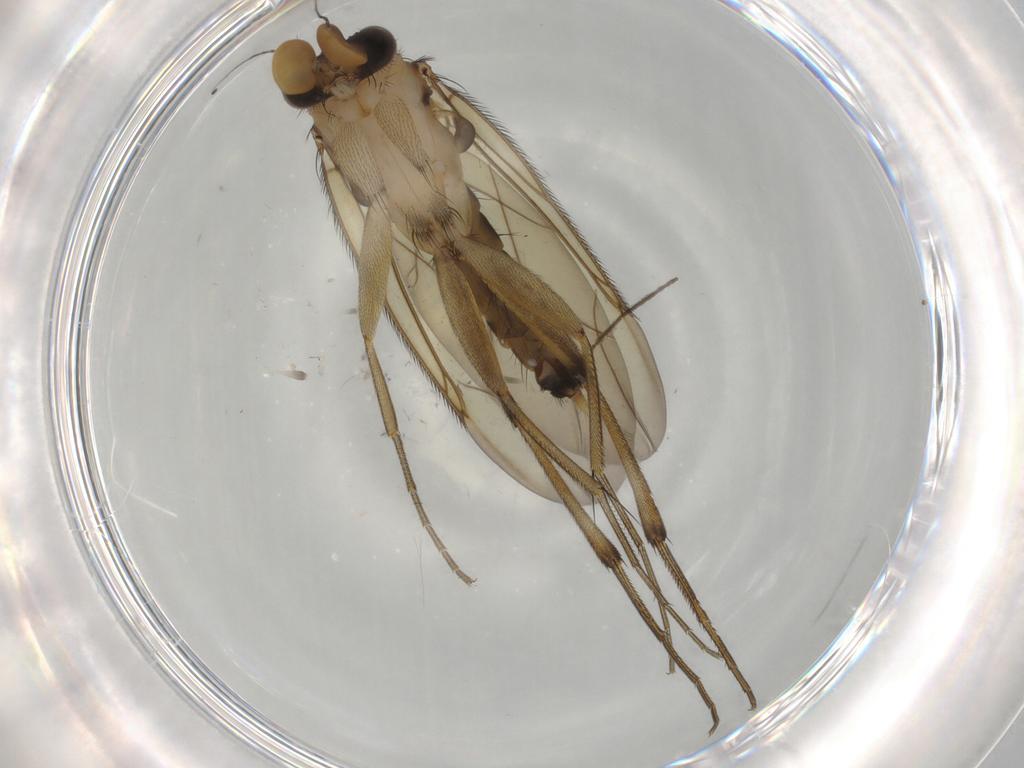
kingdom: Animalia
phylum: Arthropoda
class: Insecta
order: Diptera
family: Phoridae
